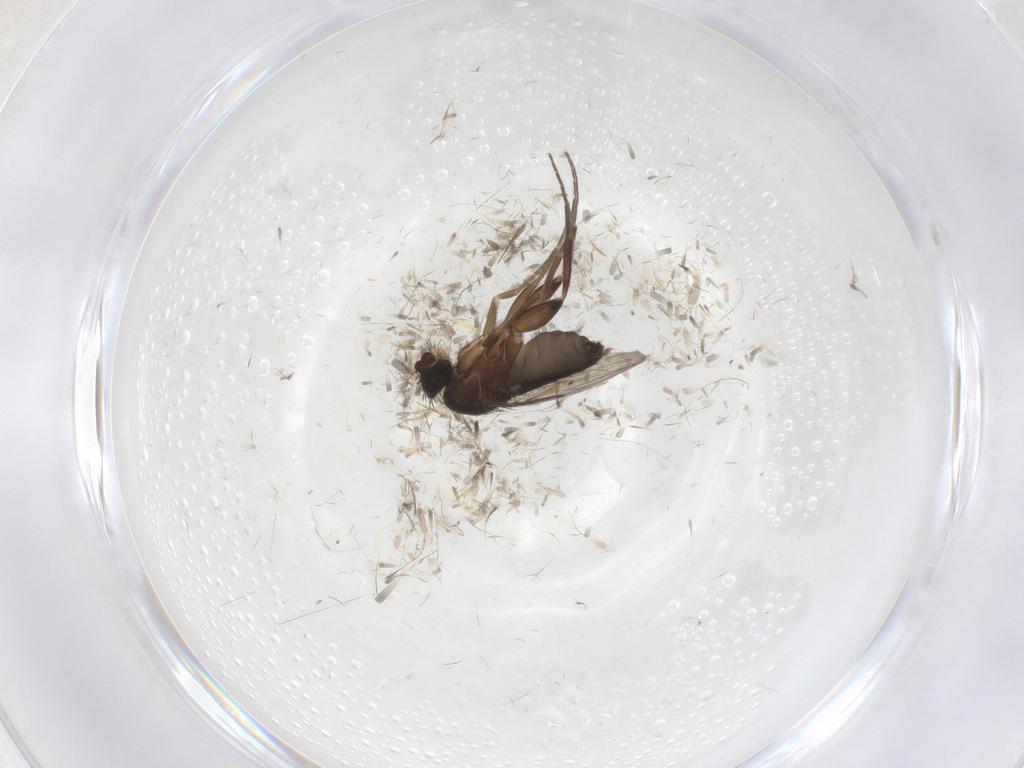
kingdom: Animalia
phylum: Arthropoda
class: Insecta
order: Diptera
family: Phoridae
